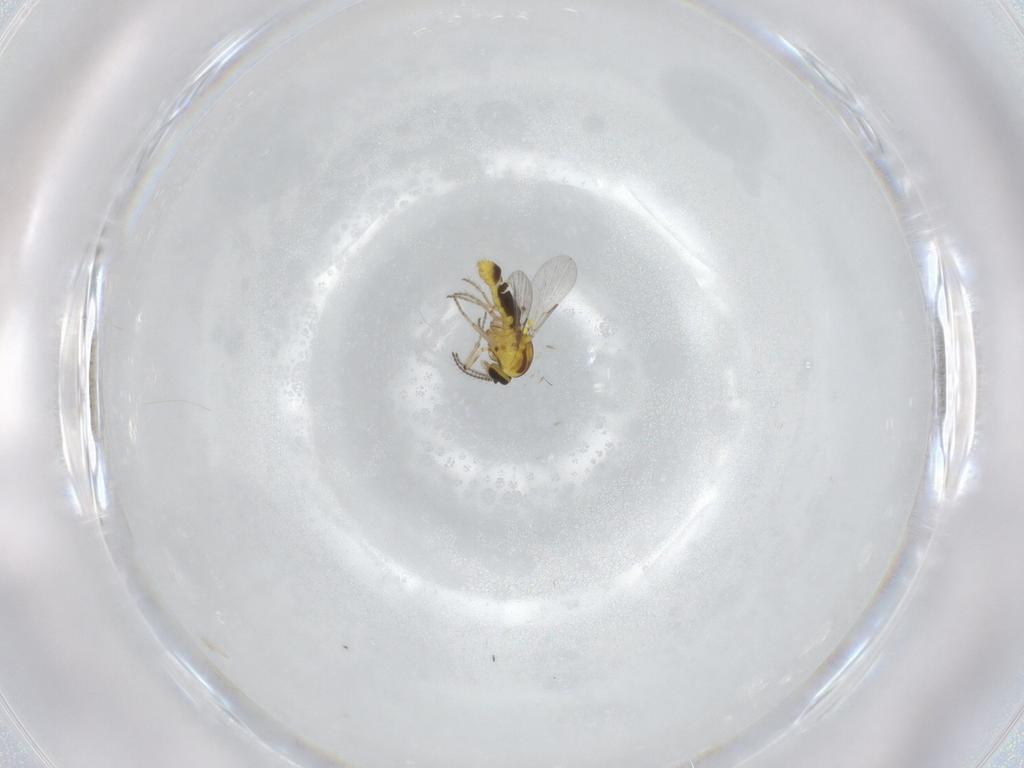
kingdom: Animalia
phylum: Arthropoda
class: Insecta
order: Diptera
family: Ceratopogonidae
